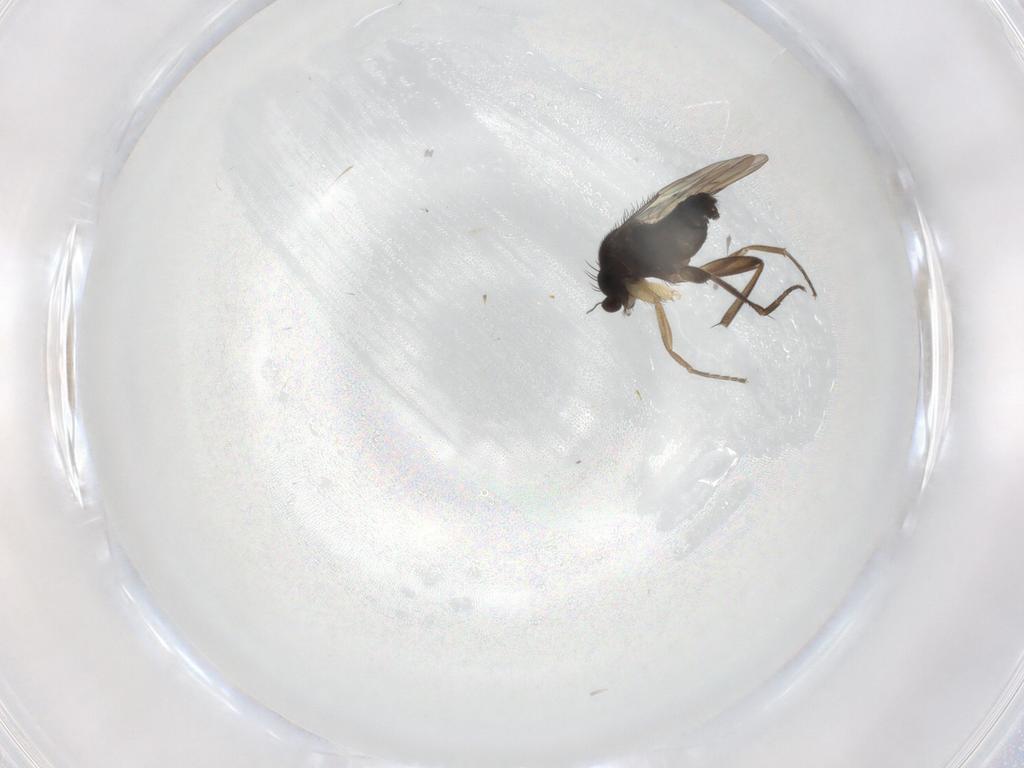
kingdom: Animalia
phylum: Arthropoda
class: Insecta
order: Diptera
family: Phoridae
